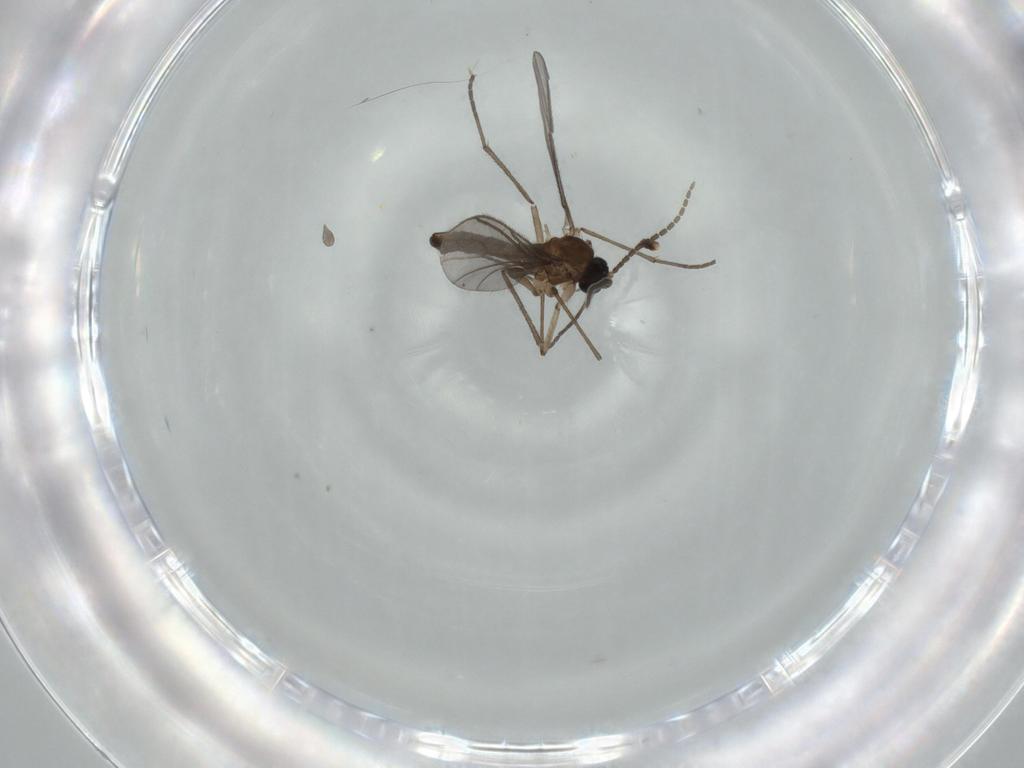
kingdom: Animalia
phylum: Arthropoda
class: Insecta
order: Diptera
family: Sciaridae
